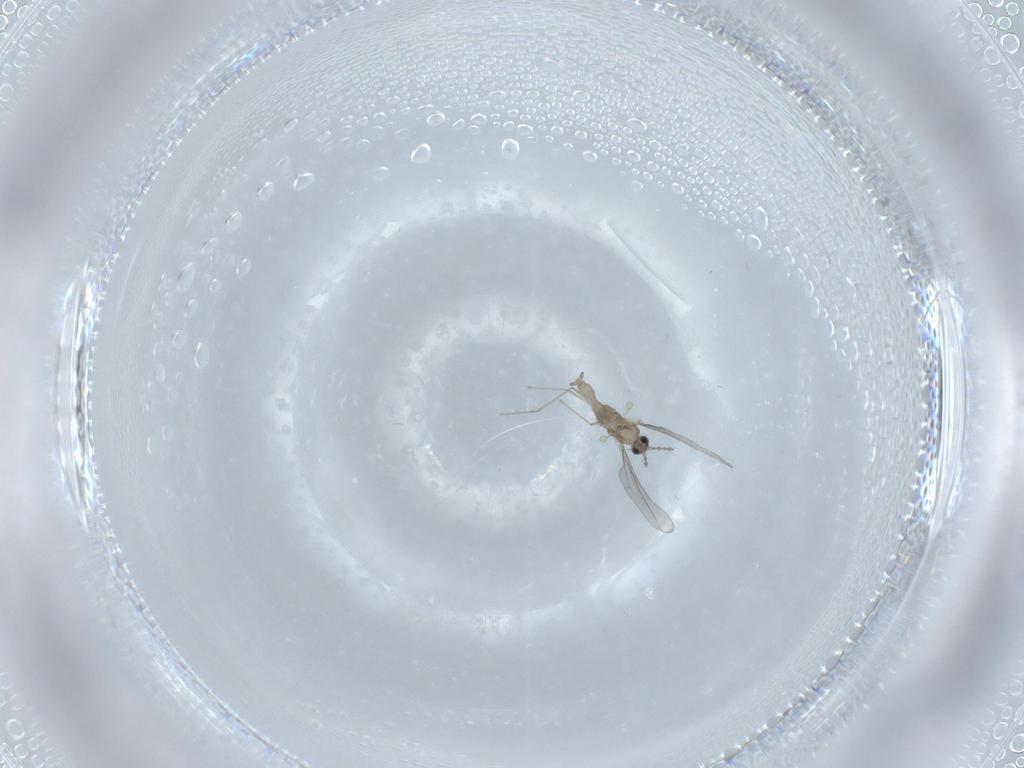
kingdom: Animalia
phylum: Arthropoda
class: Insecta
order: Diptera
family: Cecidomyiidae
